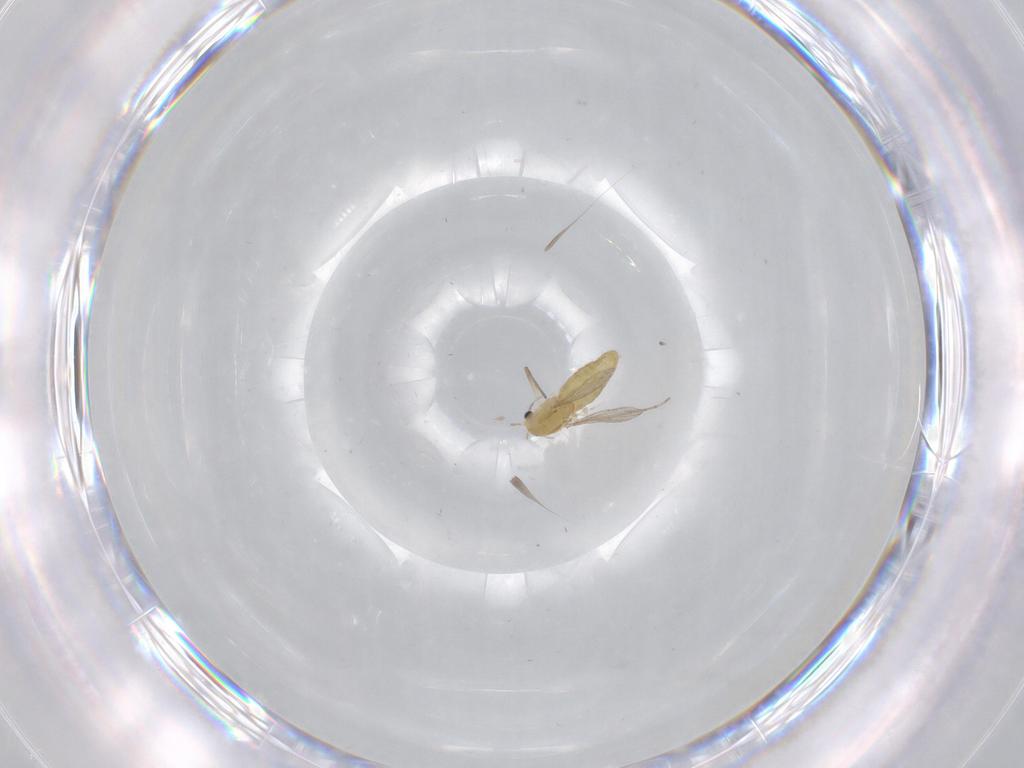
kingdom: Animalia
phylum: Arthropoda
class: Insecta
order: Diptera
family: Chironomidae
